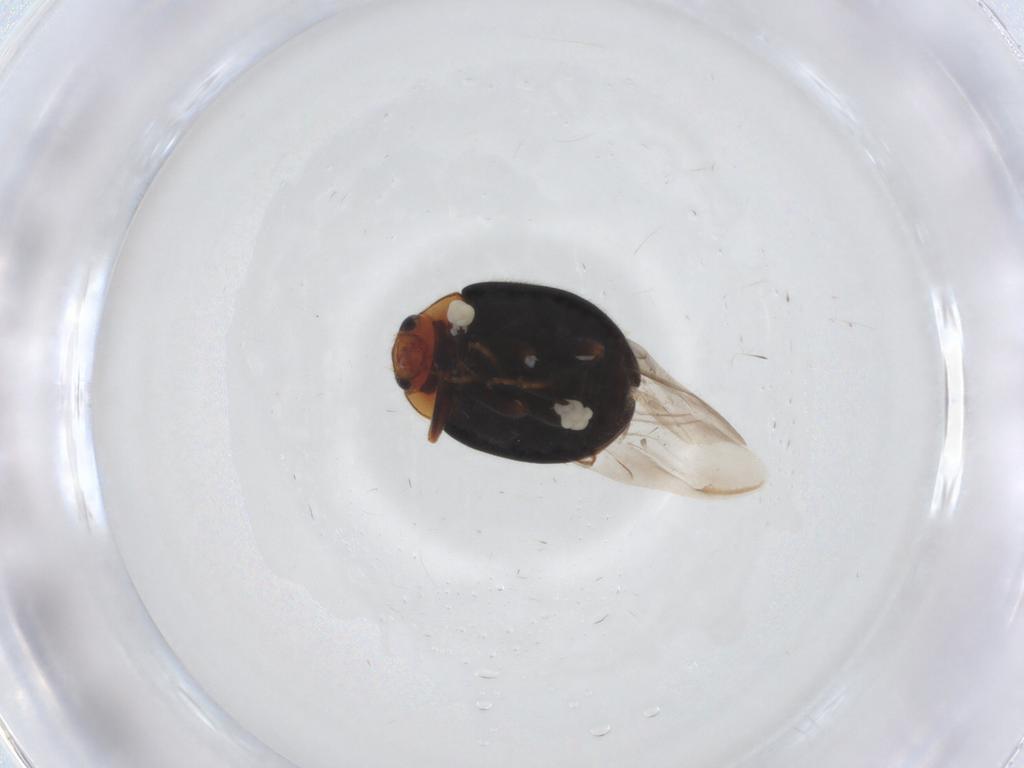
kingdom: Animalia
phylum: Arthropoda
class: Insecta
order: Coleoptera
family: Coccinellidae
